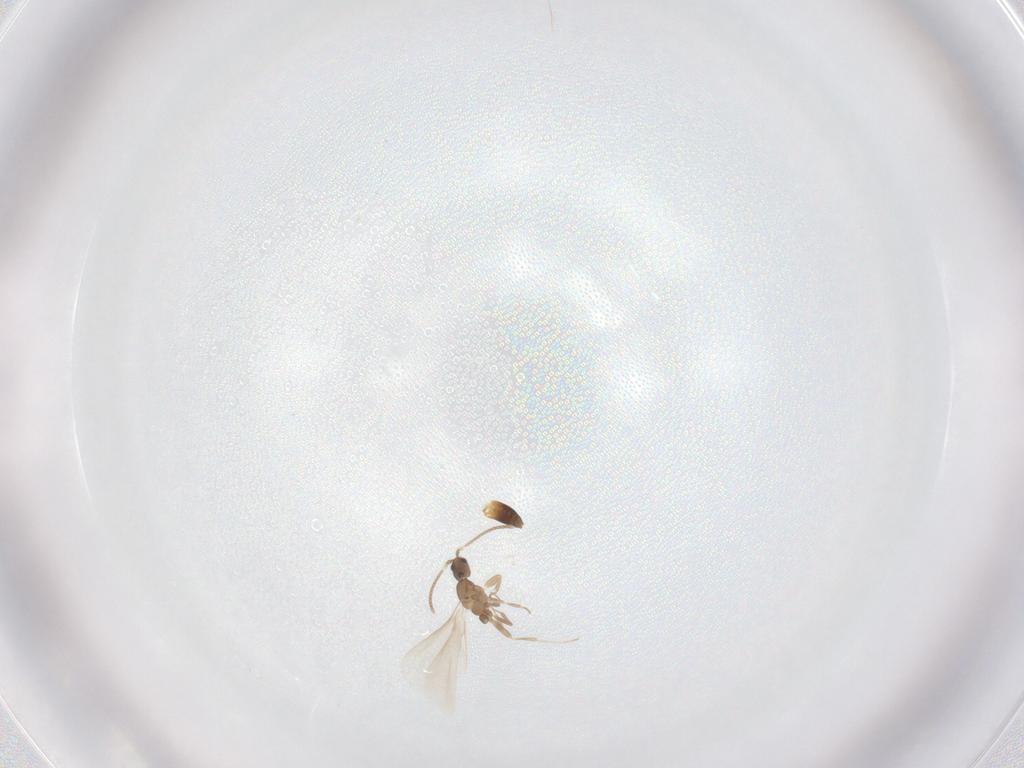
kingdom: Animalia
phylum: Arthropoda
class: Insecta
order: Hymenoptera
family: Formicidae
